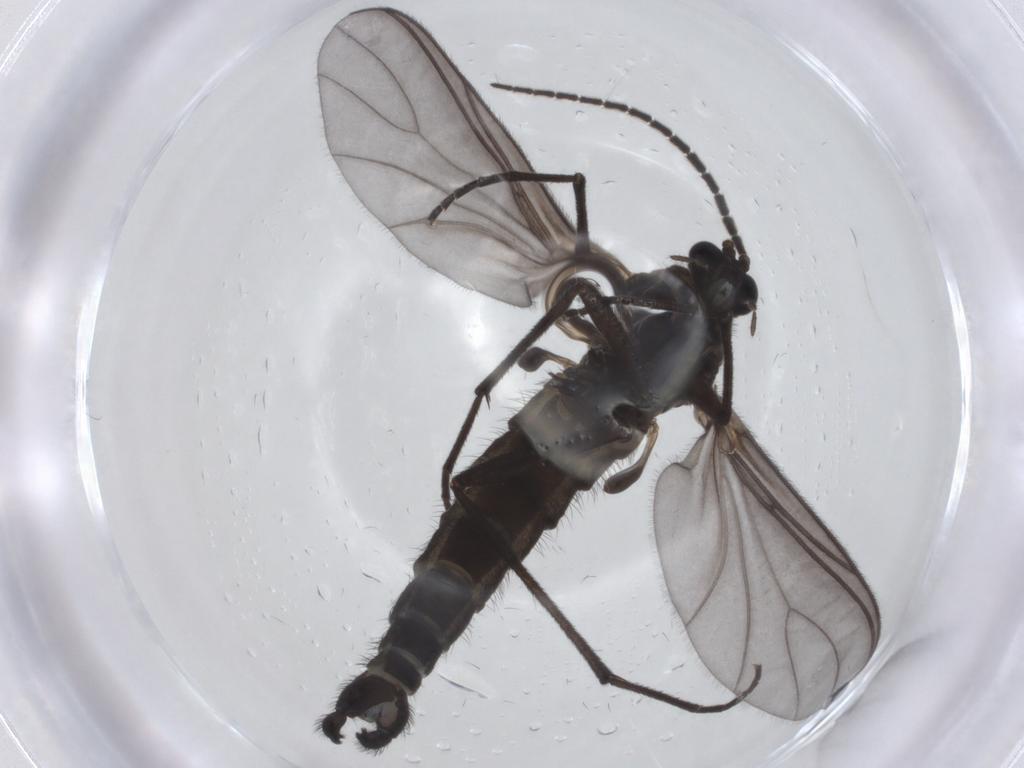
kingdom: Animalia
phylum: Arthropoda
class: Insecta
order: Diptera
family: Sciaridae
